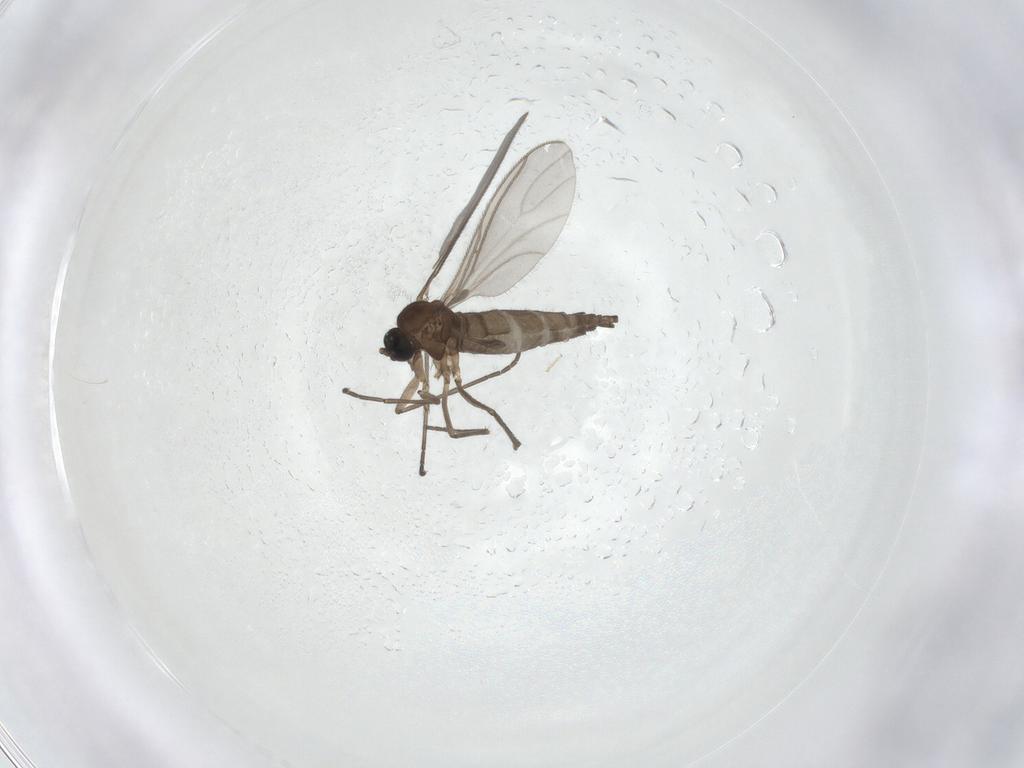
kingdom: Animalia
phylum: Arthropoda
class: Insecta
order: Diptera
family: Sciaridae
